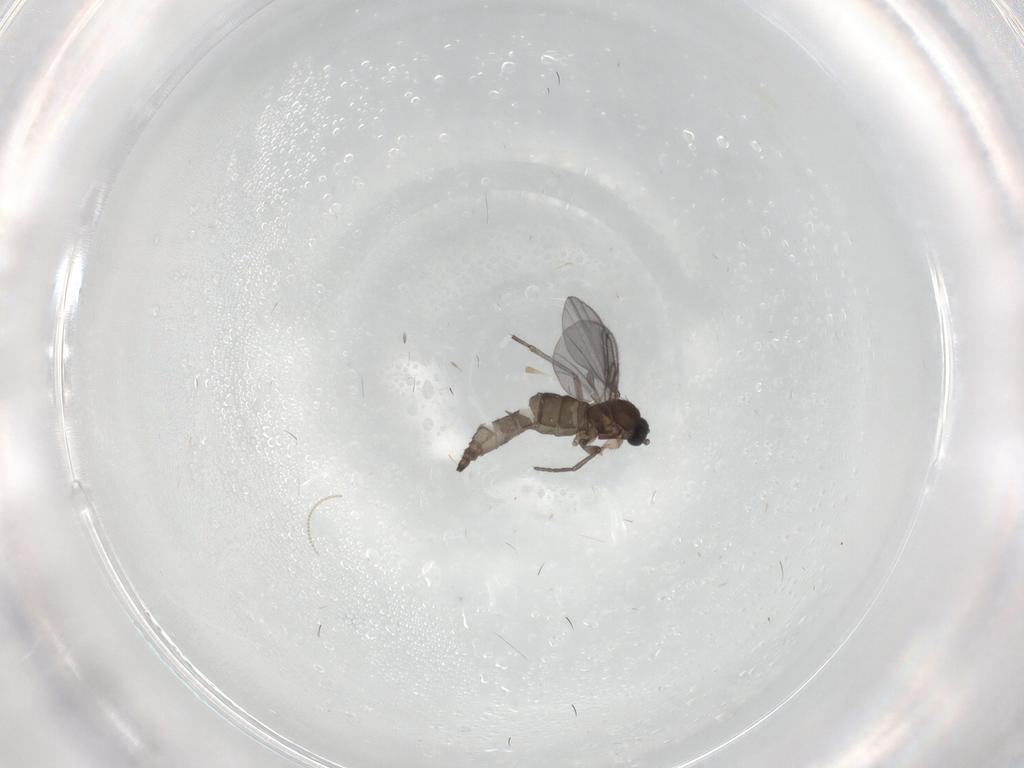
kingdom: Animalia
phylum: Arthropoda
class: Insecta
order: Diptera
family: Sciaridae
